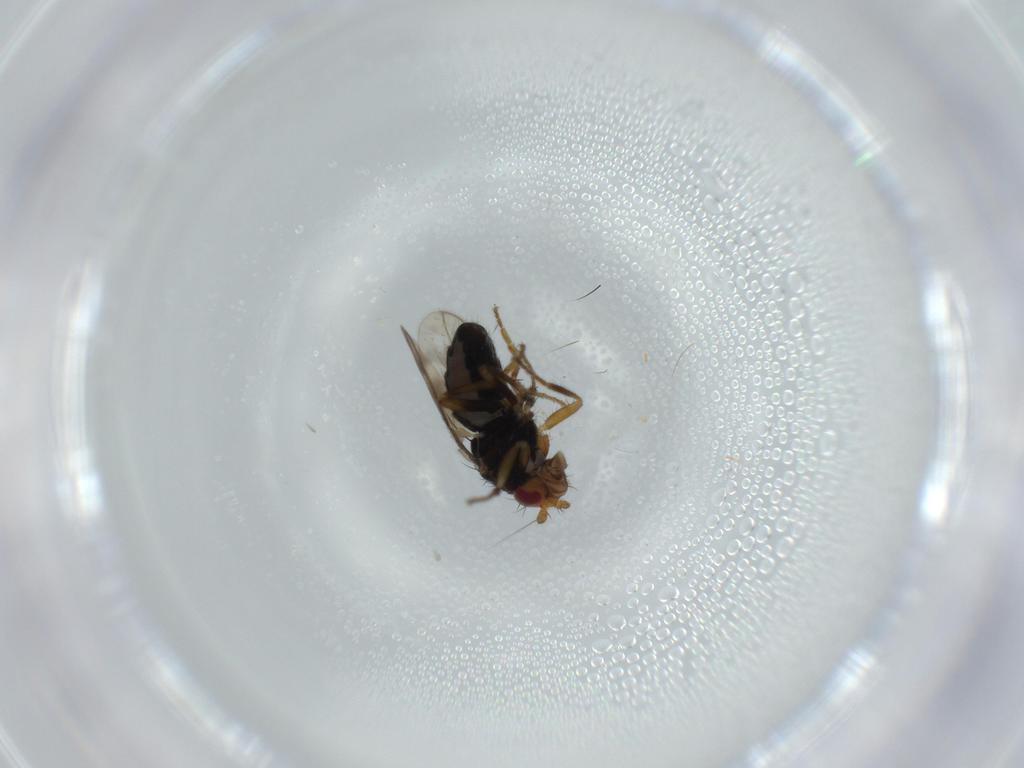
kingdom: Animalia
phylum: Arthropoda
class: Insecta
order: Diptera
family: Sphaeroceridae
